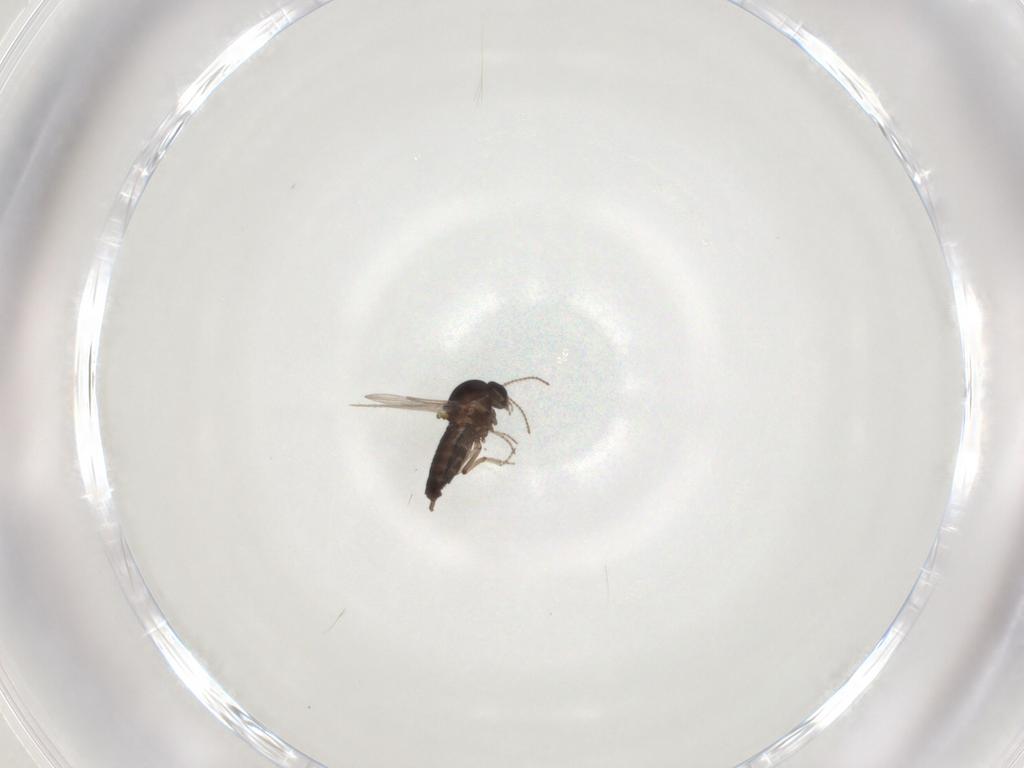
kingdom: Animalia
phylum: Arthropoda
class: Insecta
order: Diptera
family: Ceratopogonidae
